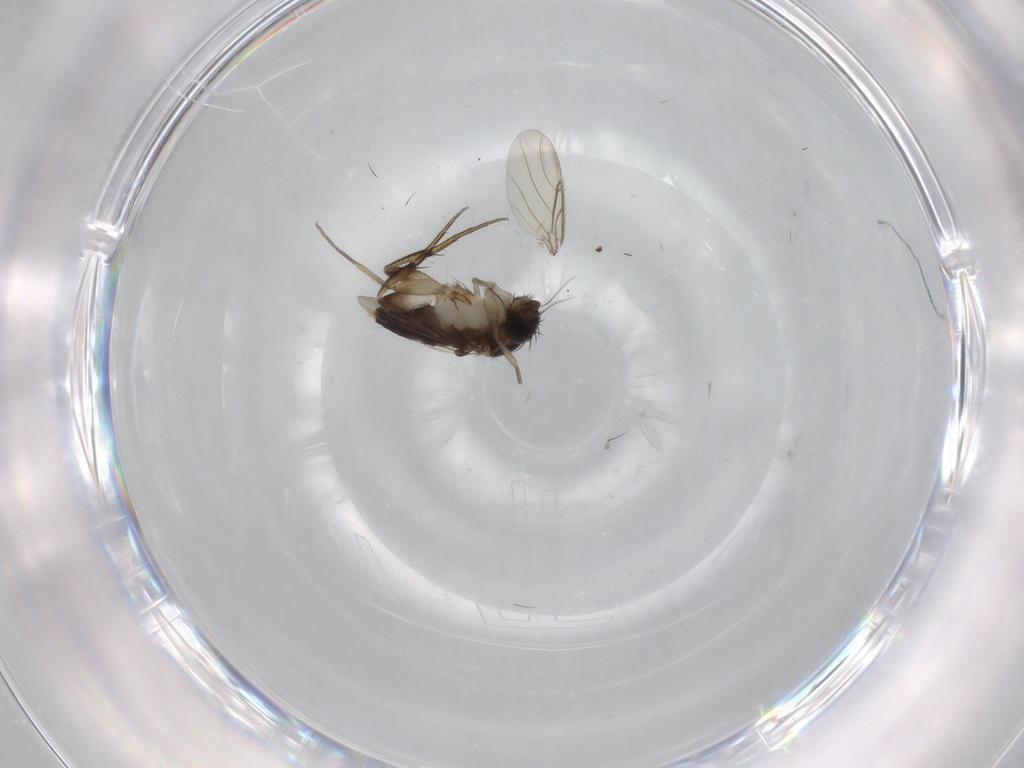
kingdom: Animalia
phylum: Arthropoda
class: Insecta
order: Diptera
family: Phoridae
